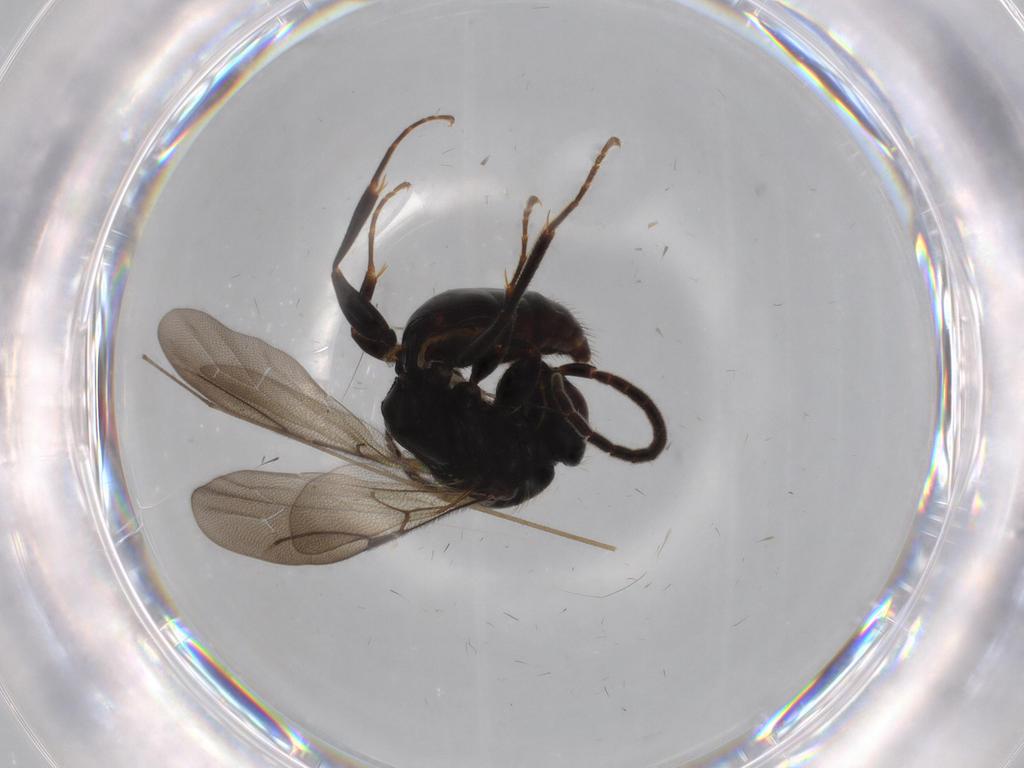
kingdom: Animalia
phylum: Arthropoda
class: Insecta
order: Hymenoptera
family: Bethylidae
